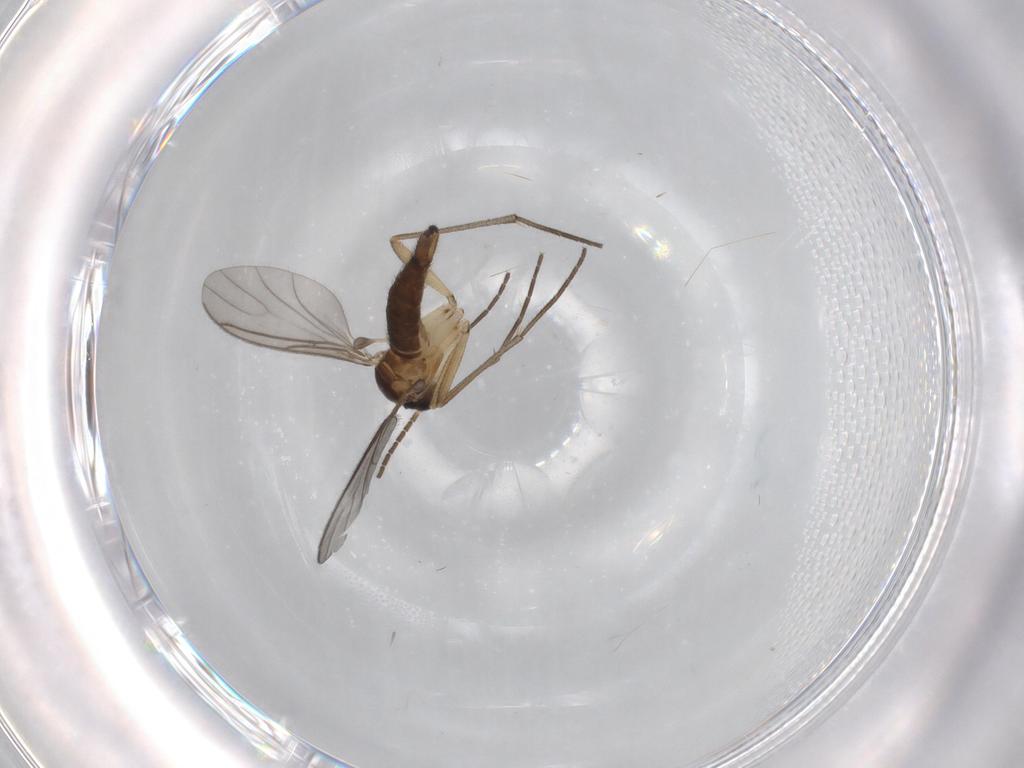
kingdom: Animalia
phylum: Arthropoda
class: Insecta
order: Diptera
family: Sciaridae
